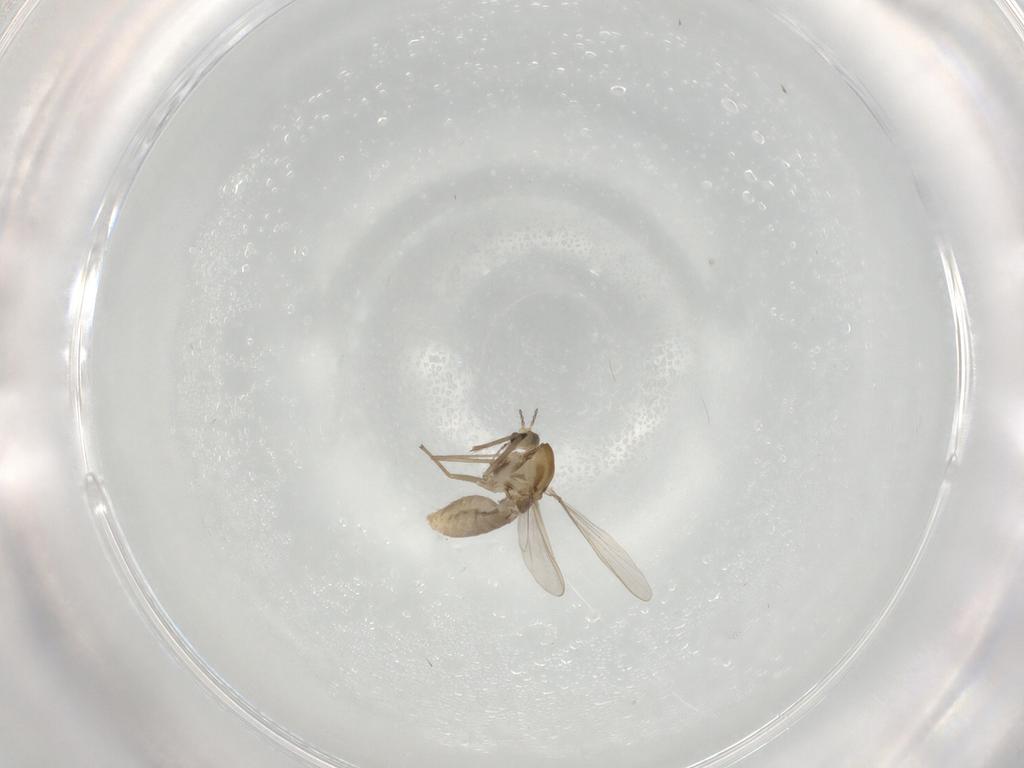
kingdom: Animalia
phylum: Arthropoda
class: Insecta
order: Diptera
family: Chironomidae
